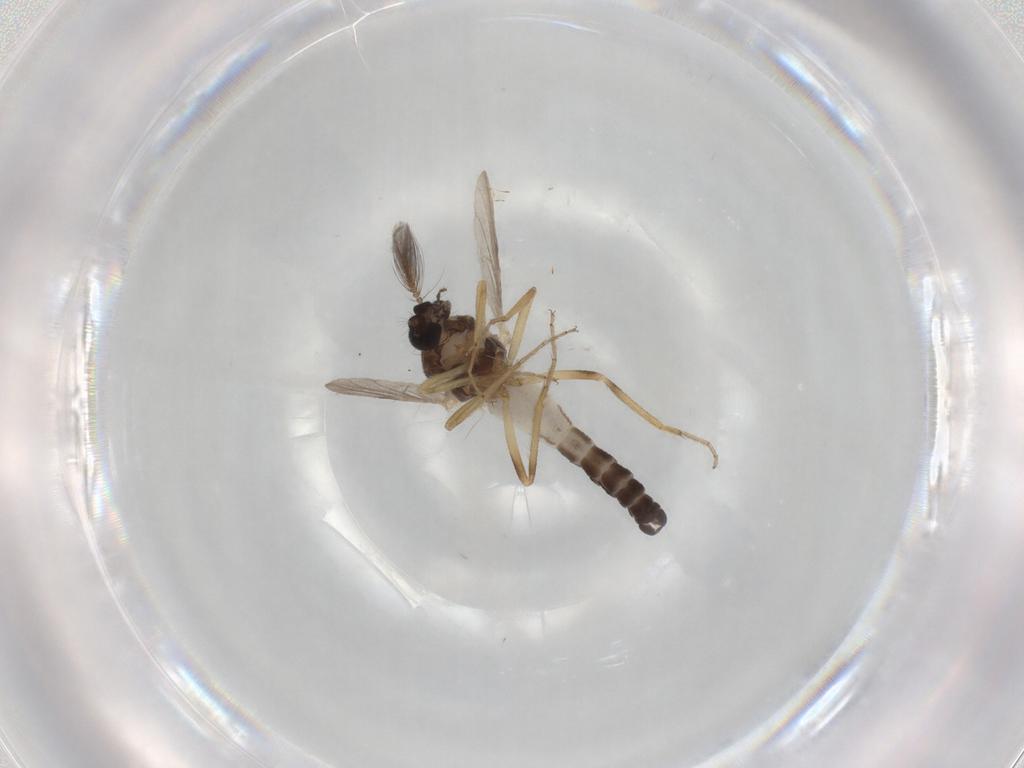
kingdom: Animalia
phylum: Arthropoda
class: Insecta
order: Diptera
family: Ceratopogonidae
